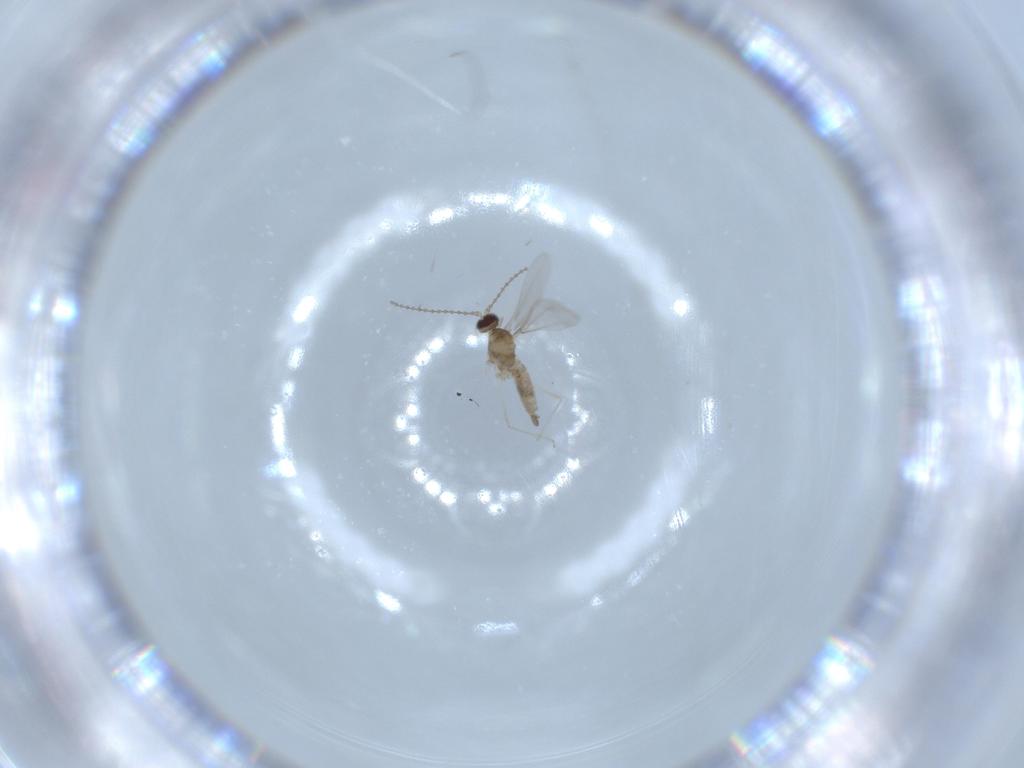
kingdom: Animalia
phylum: Arthropoda
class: Insecta
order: Diptera
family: Cecidomyiidae
